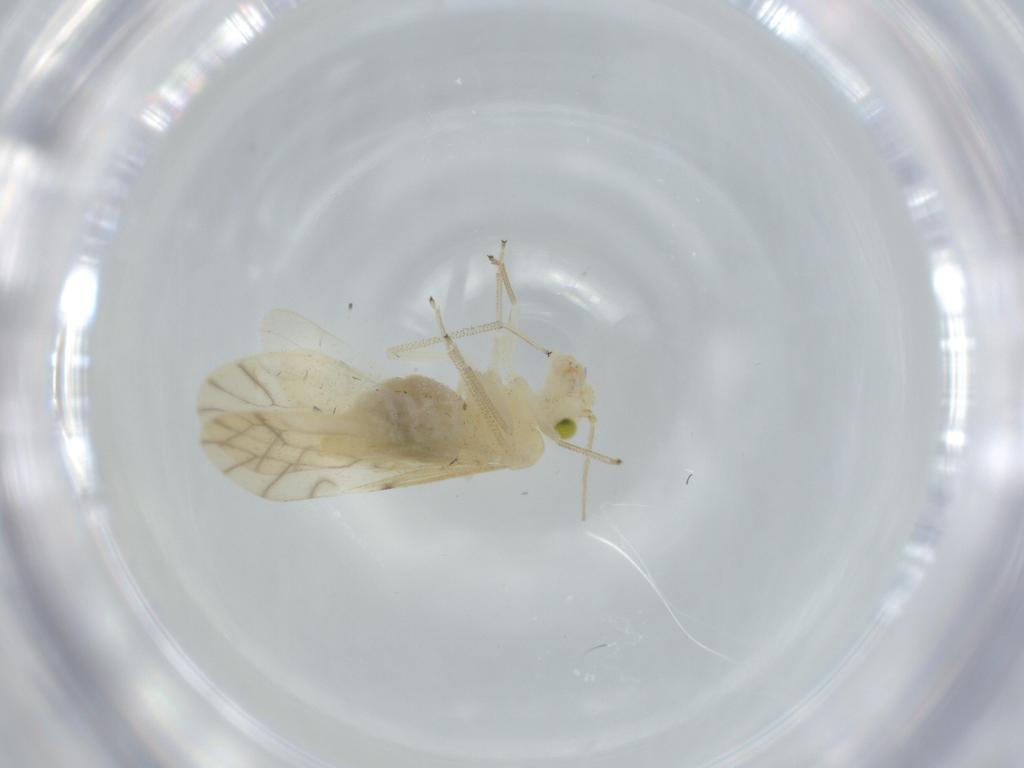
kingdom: Animalia
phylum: Arthropoda
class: Insecta
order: Psocodea
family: Caeciliusidae
